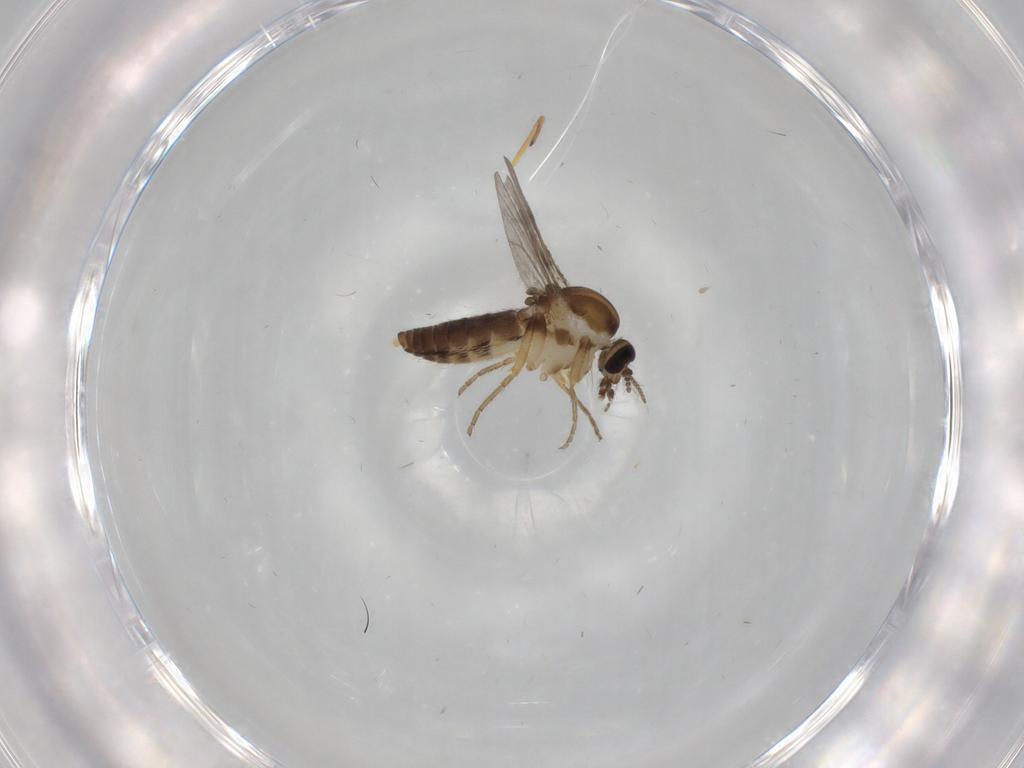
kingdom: Animalia
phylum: Arthropoda
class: Insecta
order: Diptera
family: Ceratopogonidae
